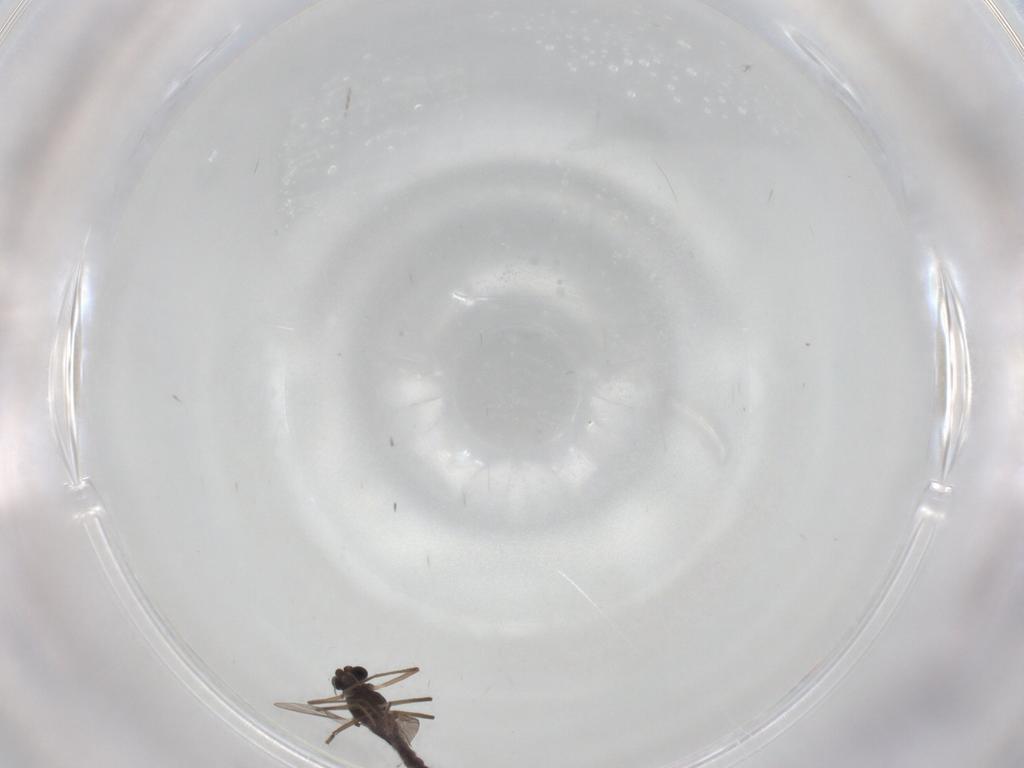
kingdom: Animalia
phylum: Arthropoda
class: Insecta
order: Diptera
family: Chironomidae
